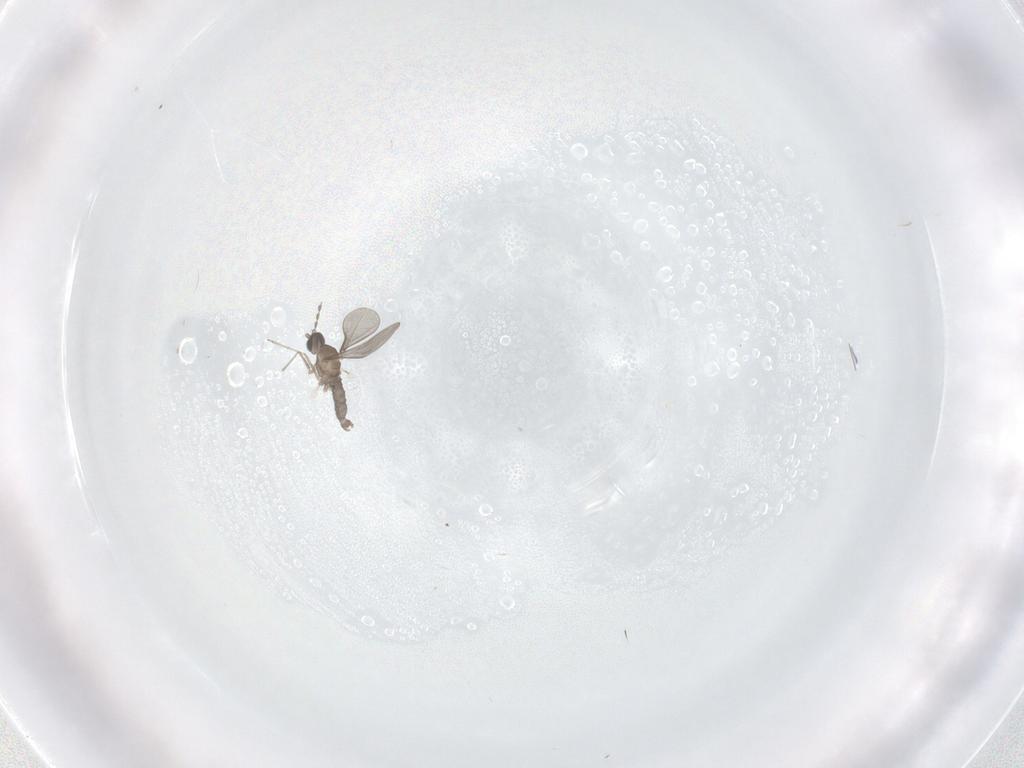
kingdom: Animalia
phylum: Arthropoda
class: Insecta
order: Diptera
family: Cecidomyiidae
